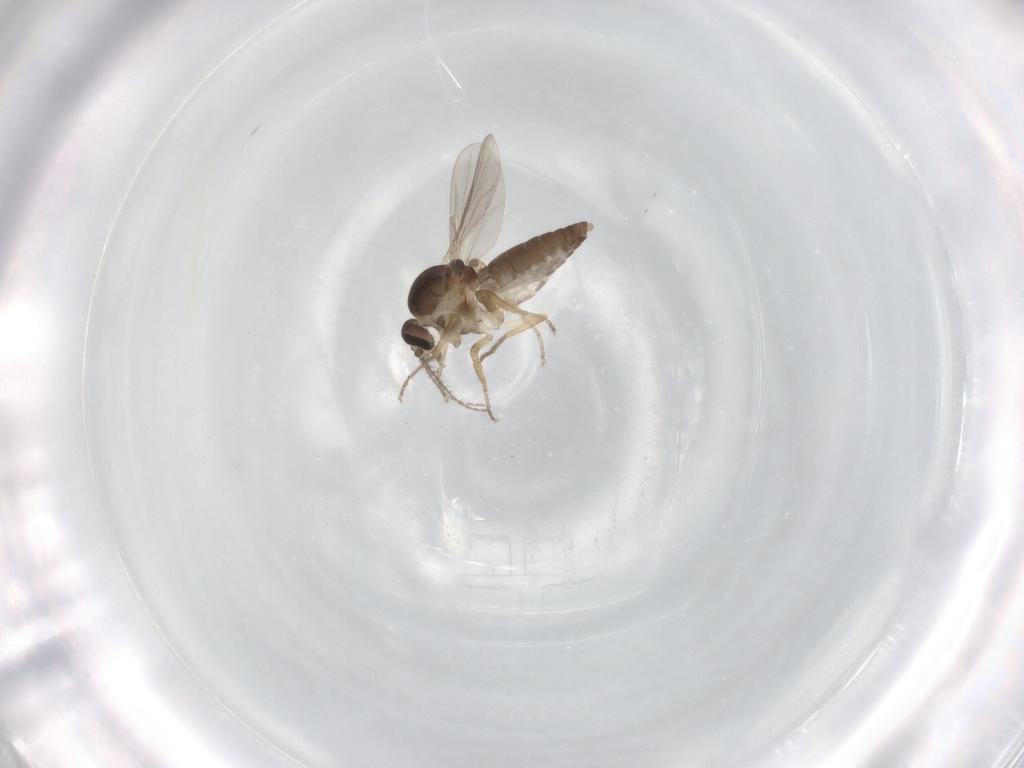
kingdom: Animalia
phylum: Arthropoda
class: Insecta
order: Diptera
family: Ceratopogonidae
